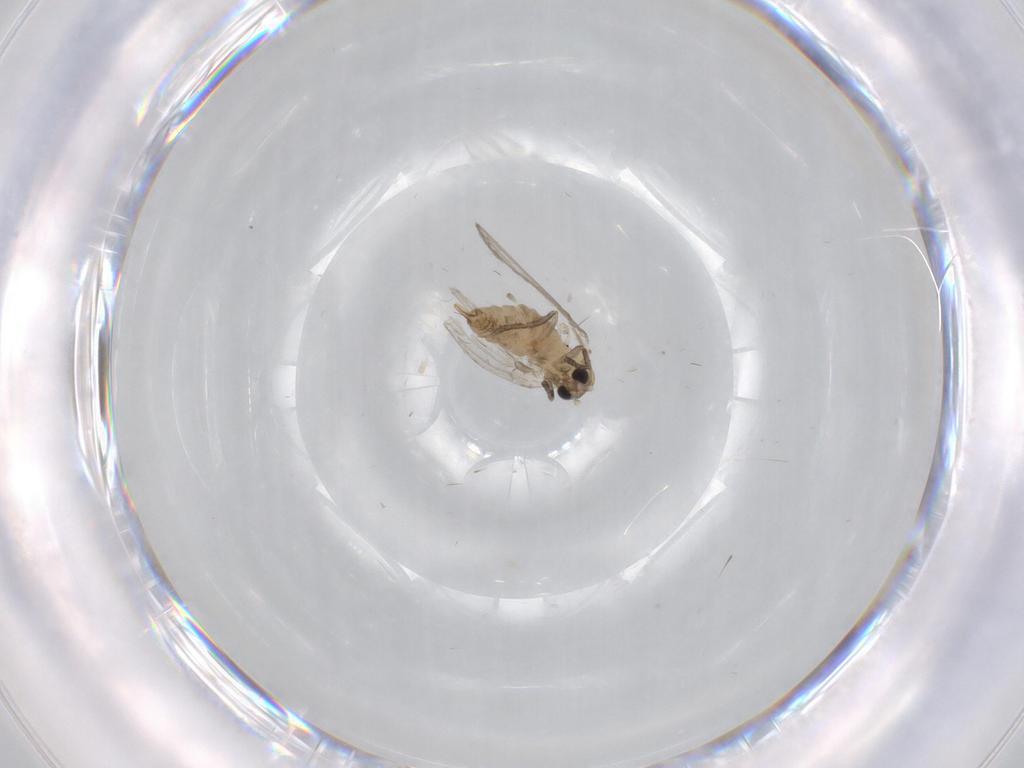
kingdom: Animalia
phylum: Arthropoda
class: Insecta
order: Diptera
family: Psychodidae
